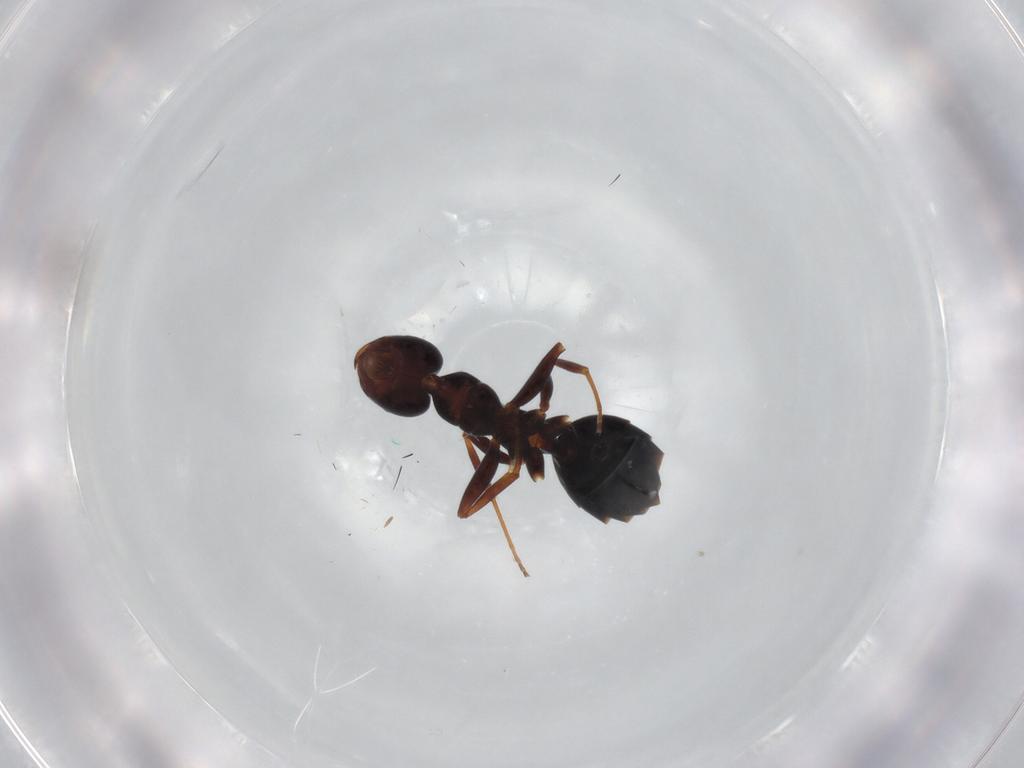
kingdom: Animalia
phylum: Arthropoda
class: Insecta
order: Hymenoptera
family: Formicidae
